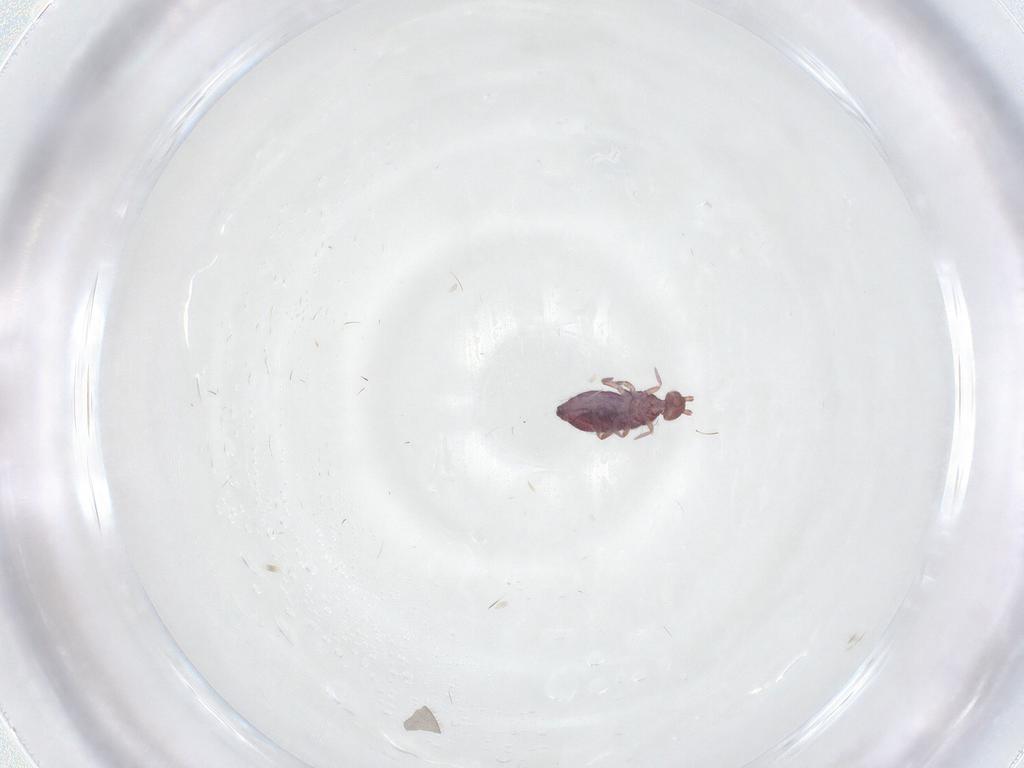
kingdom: Animalia
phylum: Arthropoda
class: Collembola
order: Entomobryomorpha
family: Entomobryidae
